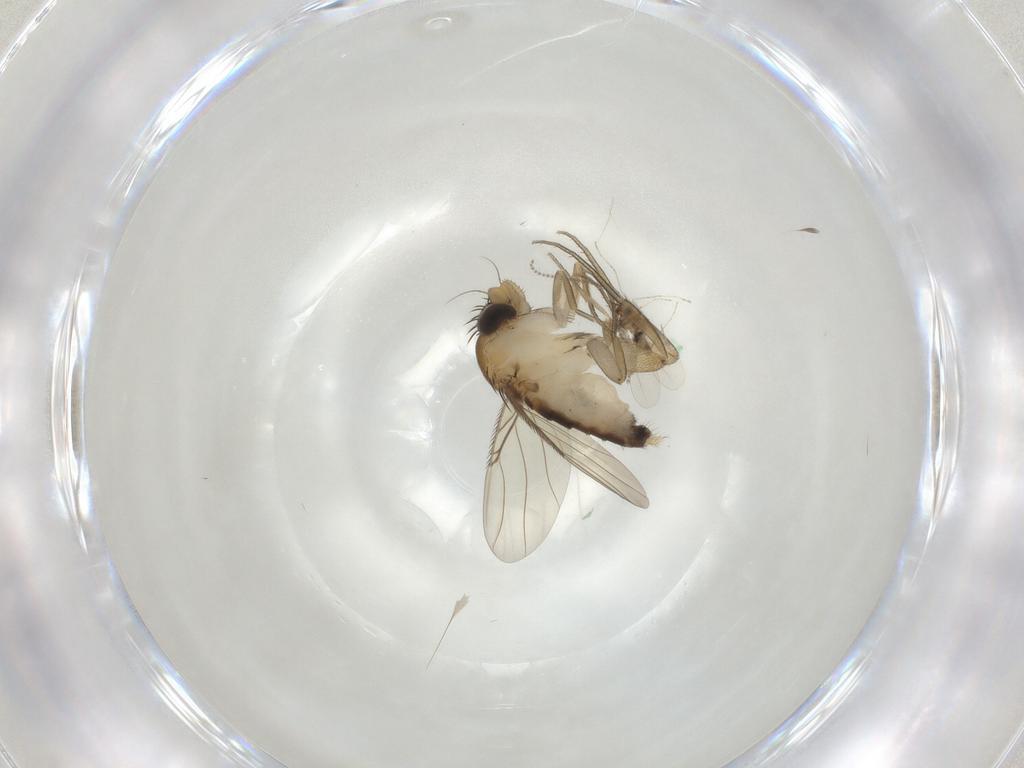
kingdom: Animalia
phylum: Arthropoda
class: Insecta
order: Diptera
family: Phoridae
